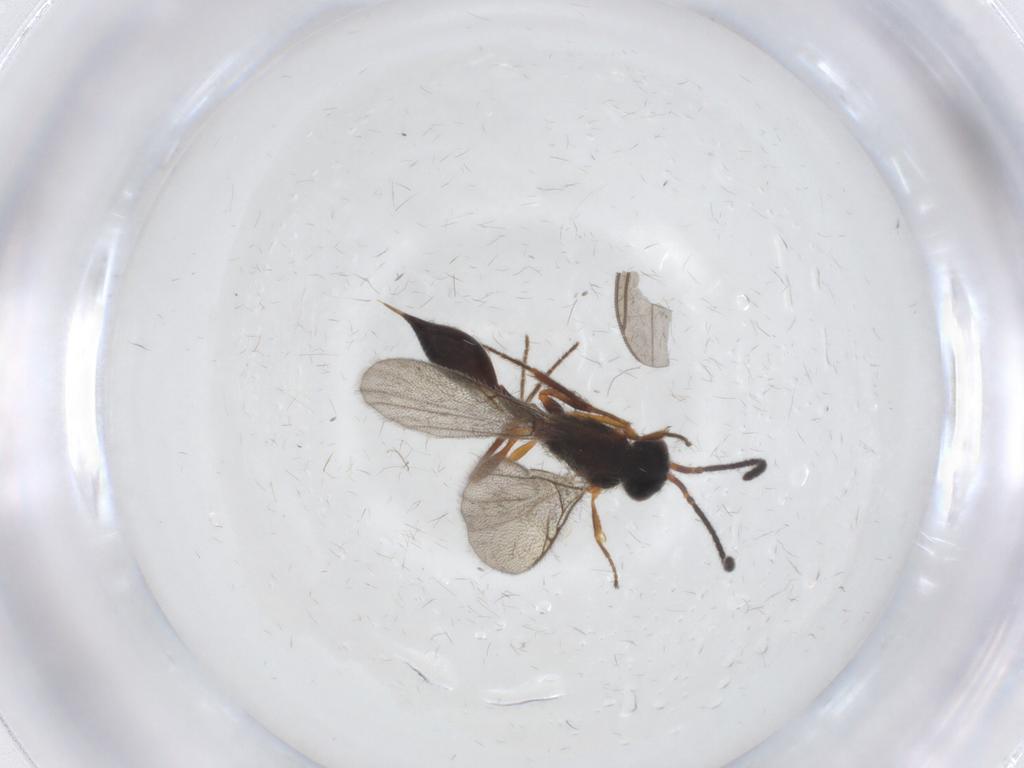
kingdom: Animalia
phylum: Arthropoda
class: Insecta
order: Hymenoptera
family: Diapriidae
